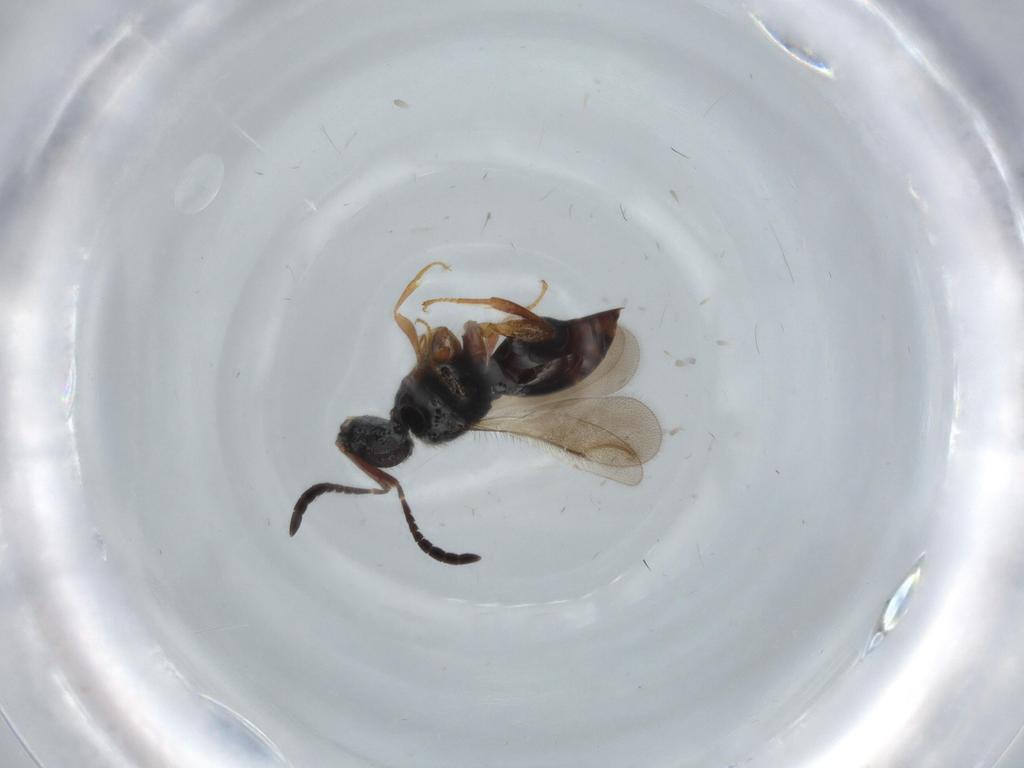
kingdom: Animalia
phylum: Arthropoda
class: Insecta
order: Hymenoptera
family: Formicidae
